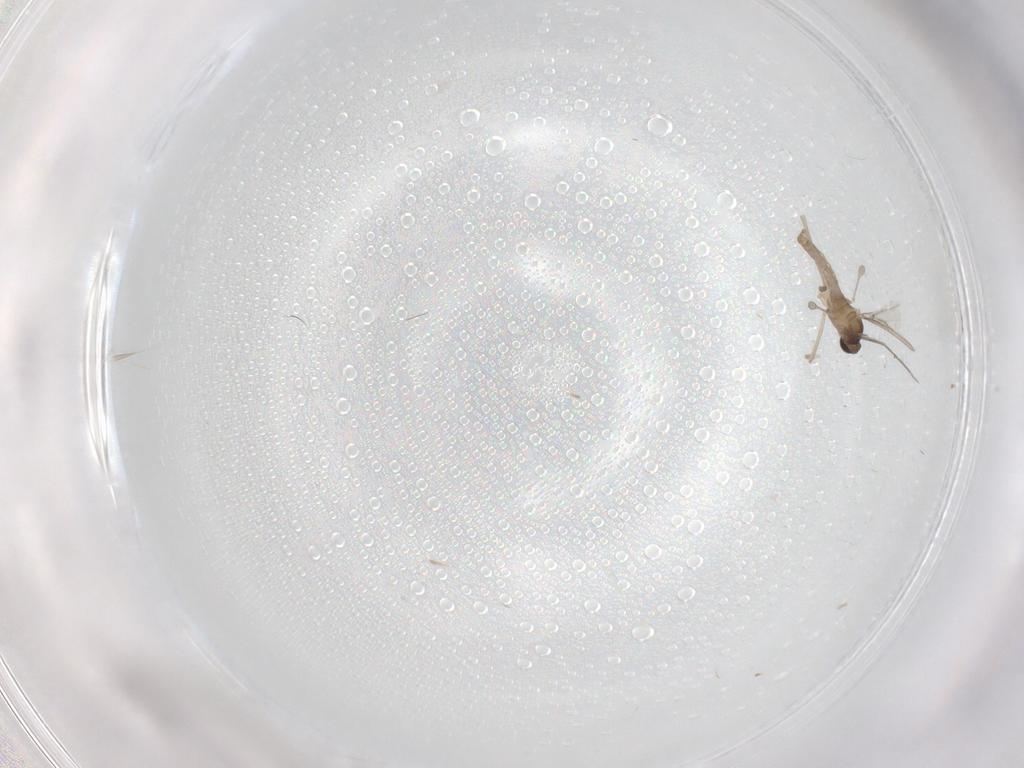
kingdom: Animalia
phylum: Arthropoda
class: Insecta
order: Diptera
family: Cecidomyiidae
